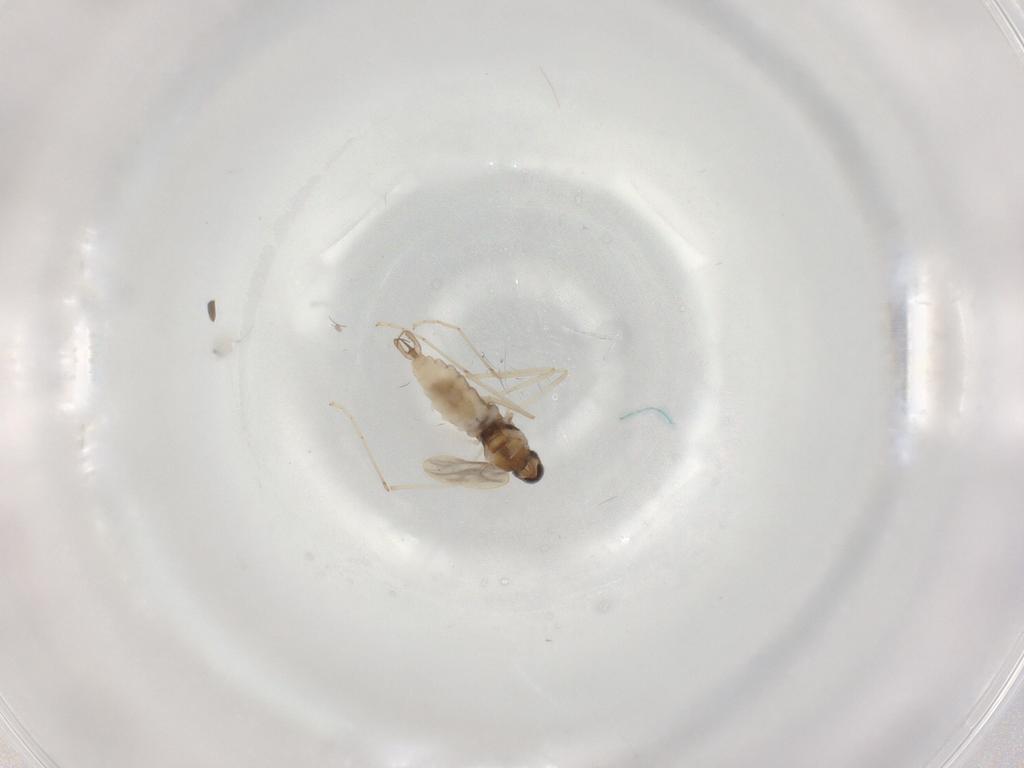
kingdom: Animalia
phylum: Arthropoda
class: Insecta
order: Diptera
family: Cecidomyiidae
